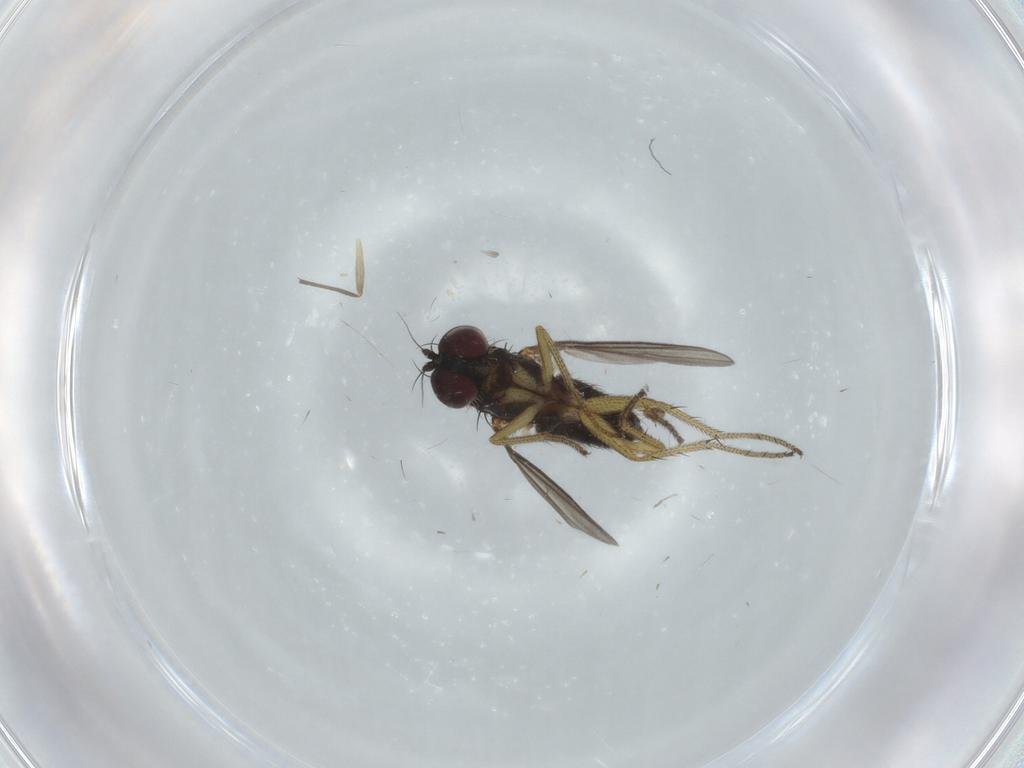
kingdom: Animalia
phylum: Arthropoda
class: Insecta
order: Diptera
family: Dolichopodidae
